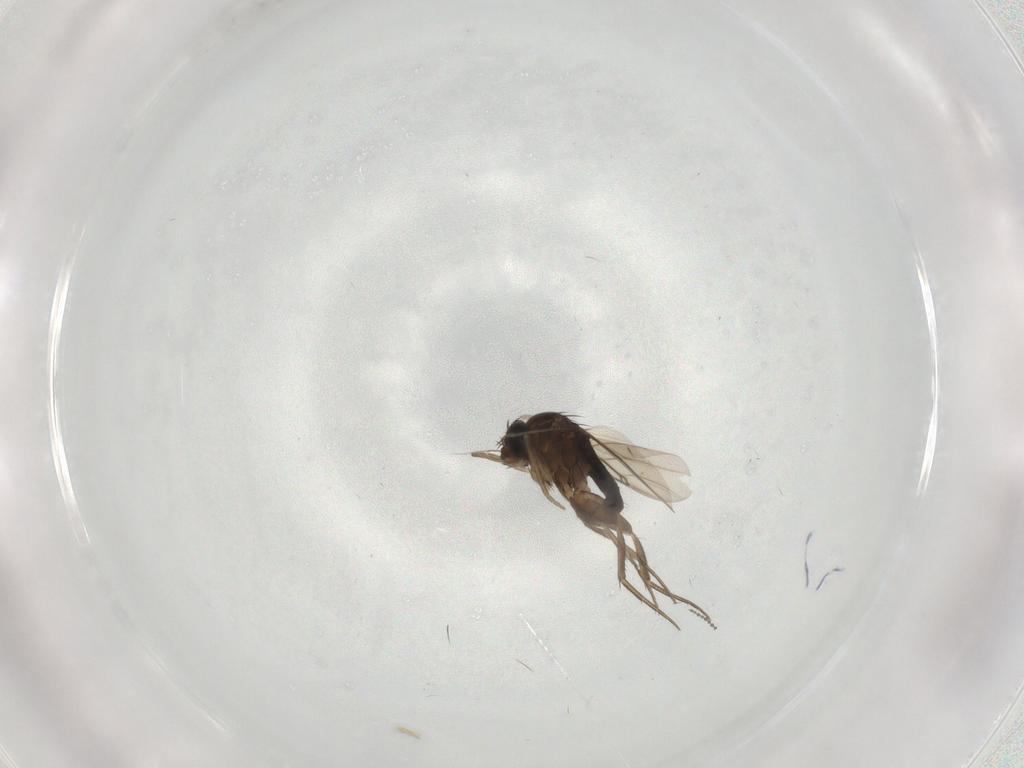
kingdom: Animalia
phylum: Arthropoda
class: Insecta
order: Diptera
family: Phoridae
